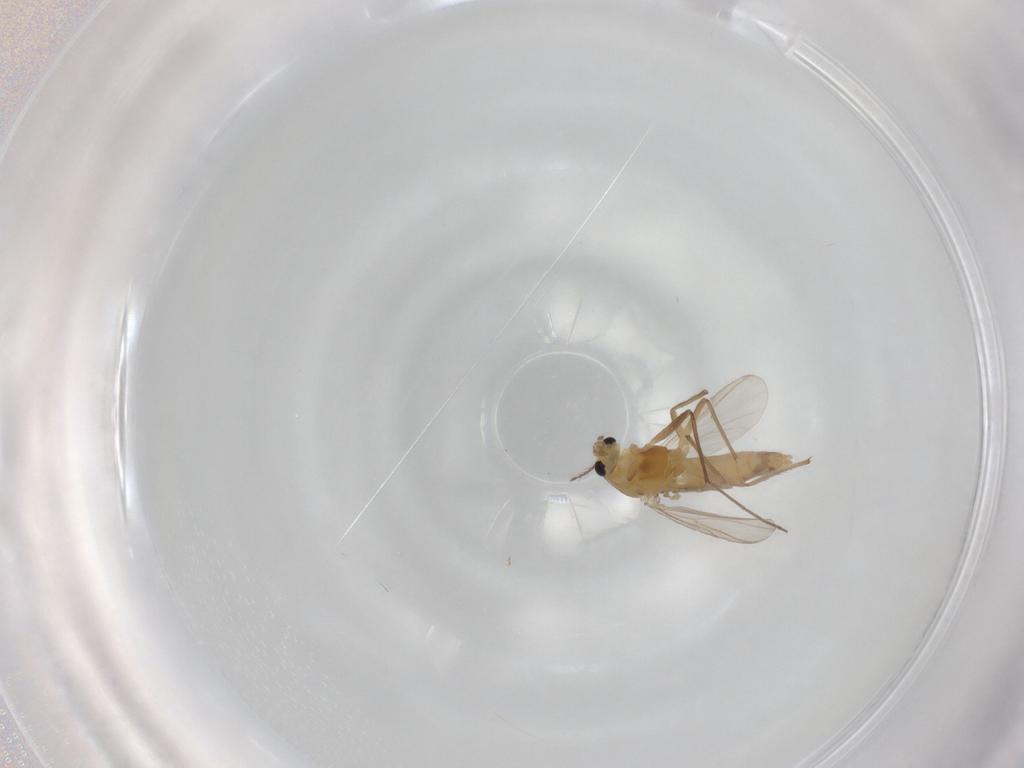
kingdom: Animalia
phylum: Arthropoda
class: Insecta
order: Diptera
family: Chironomidae
